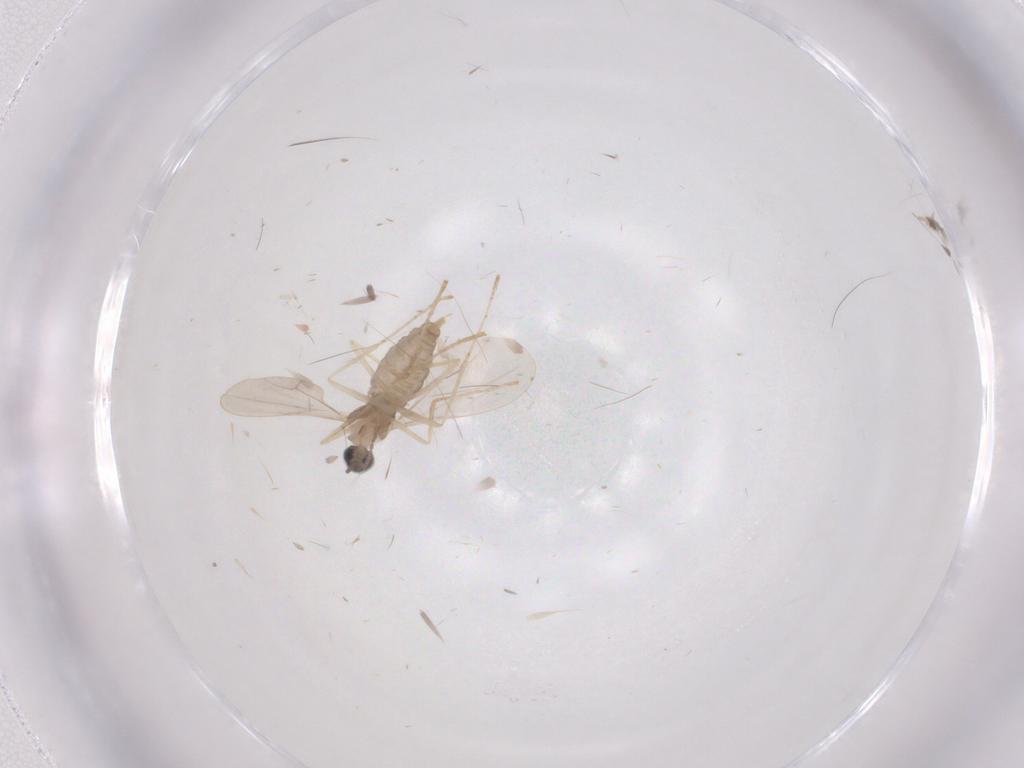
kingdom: Animalia
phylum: Arthropoda
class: Insecta
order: Diptera
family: Cecidomyiidae
